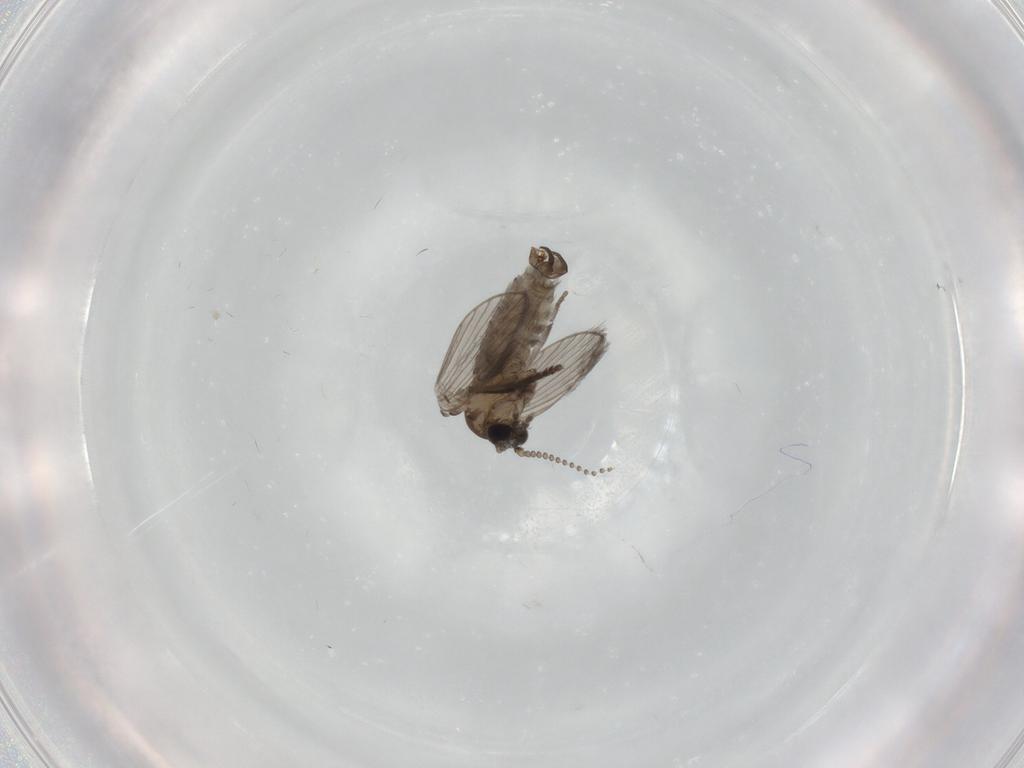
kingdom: Animalia
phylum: Arthropoda
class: Insecta
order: Diptera
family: Psychodidae
